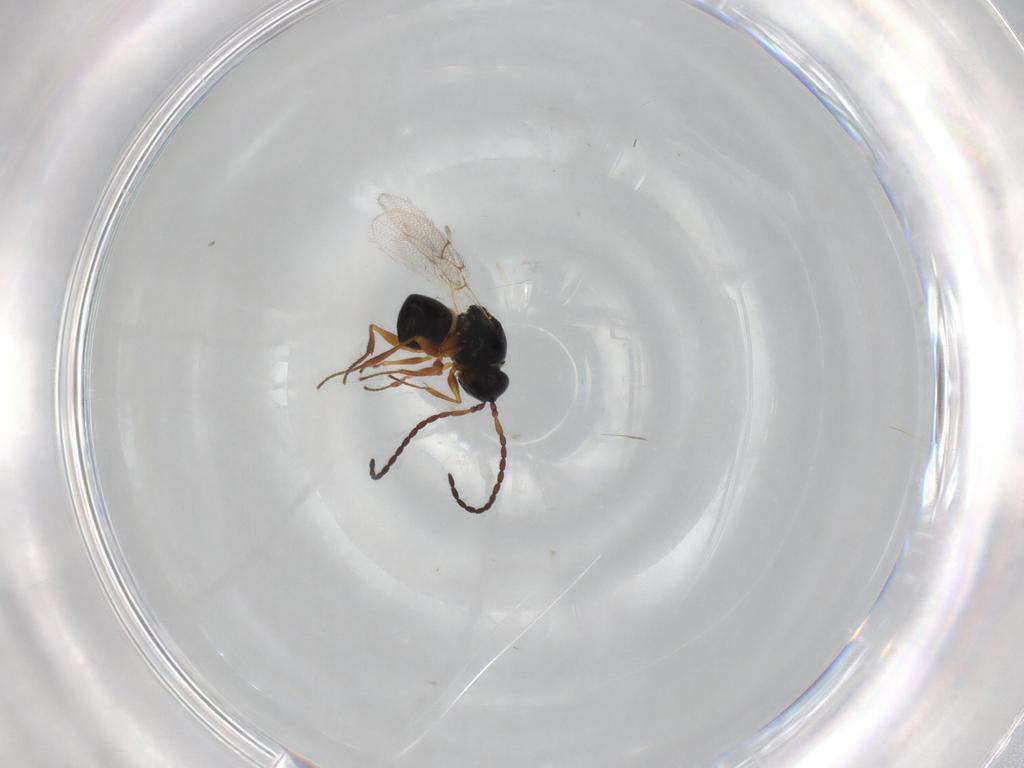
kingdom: Animalia
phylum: Arthropoda
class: Insecta
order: Hymenoptera
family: Figitidae
